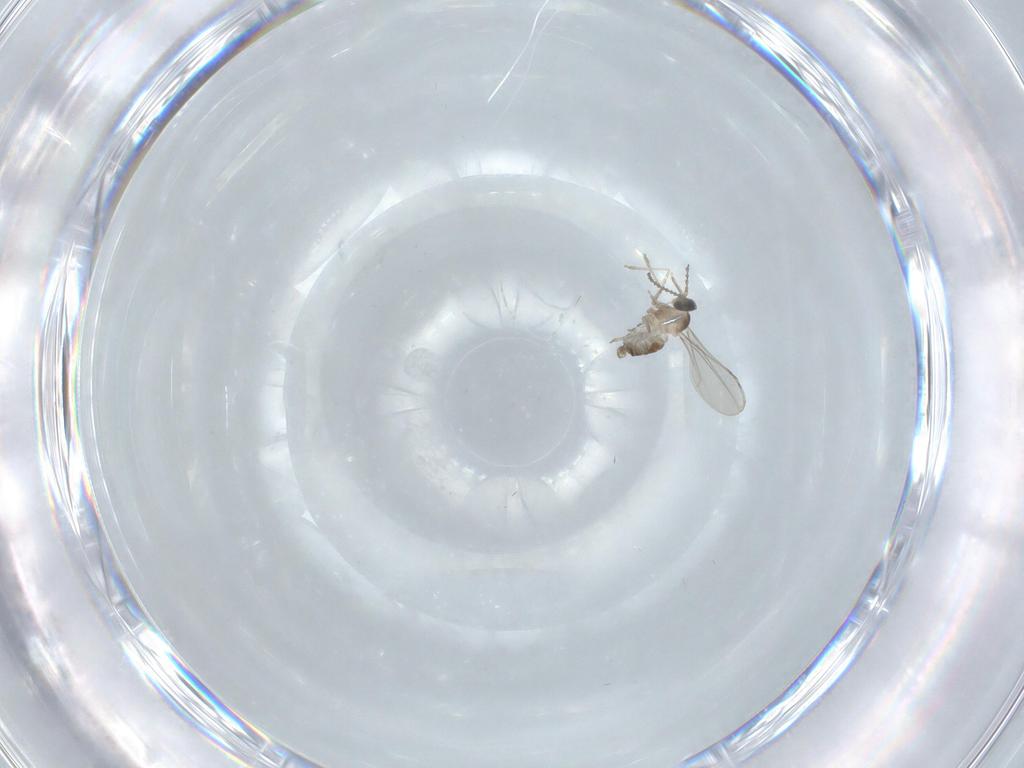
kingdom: Animalia
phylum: Arthropoda
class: Insecta
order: Diptera
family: Cecidomyiidae
